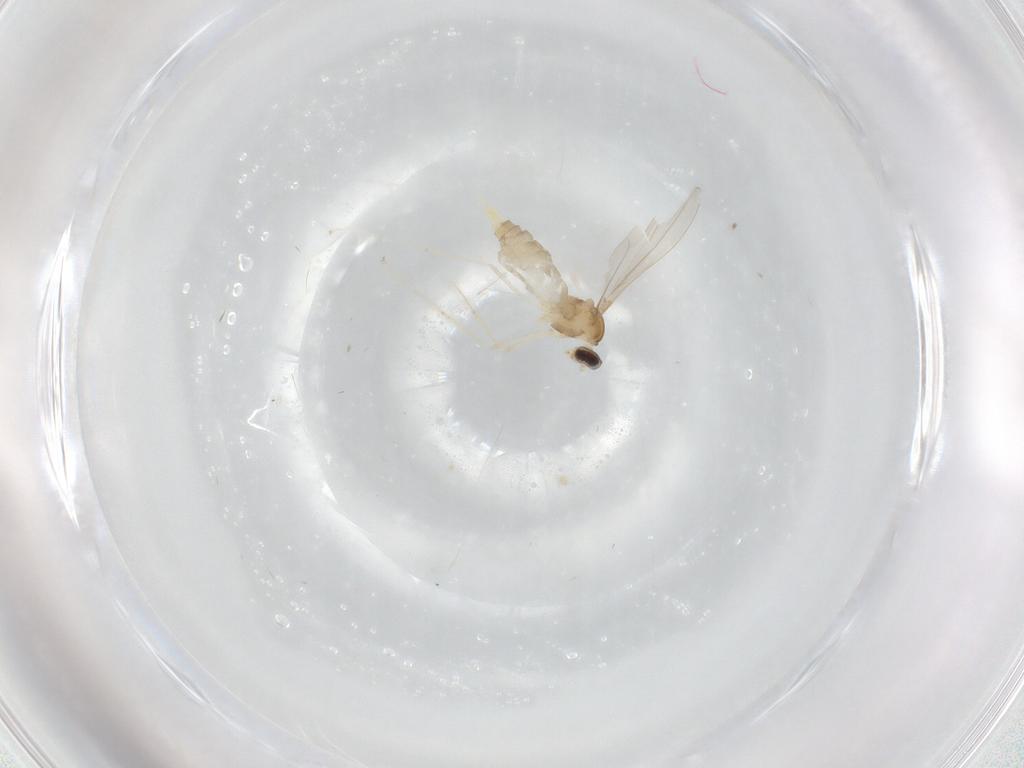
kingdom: Animalia
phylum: Arthropoda
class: Insecta
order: Diptera
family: Cecidomyiidae
